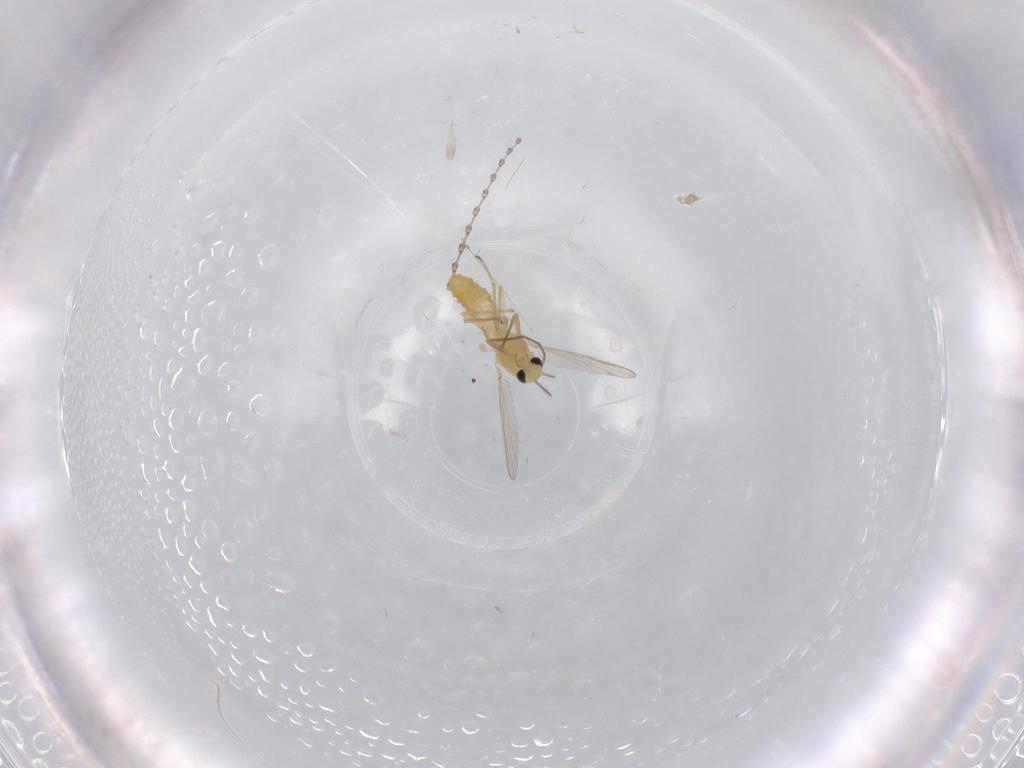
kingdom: Animalia
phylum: Arthropoda
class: Insecta
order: Diptera
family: Chironomidae
